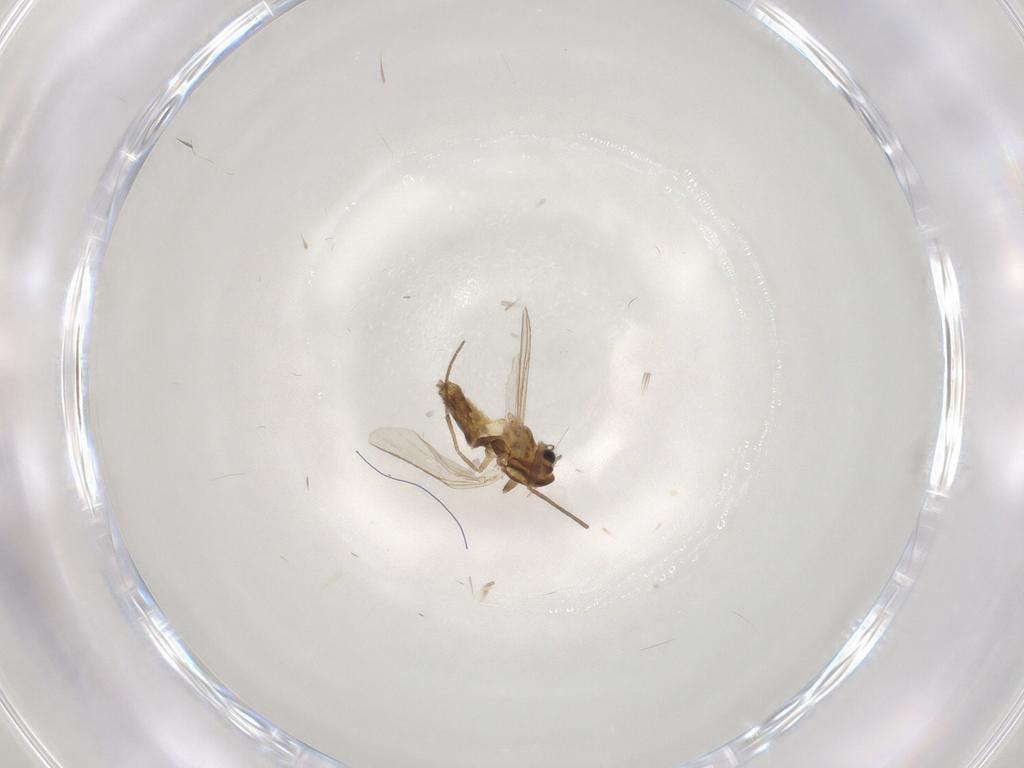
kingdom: Animalia
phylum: Arthropoda
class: Insecta
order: Diptera
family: Chironomidae
